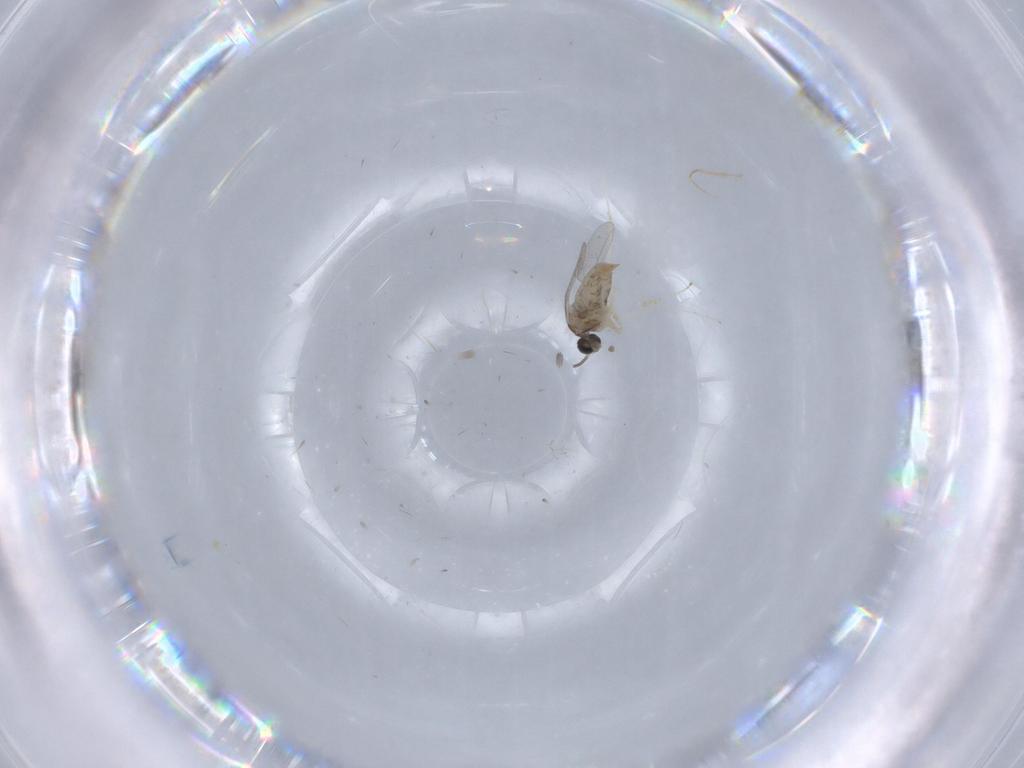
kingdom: Animalia
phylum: Arthropoda
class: Insecta
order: Diptera
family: Cecidomyiidae
